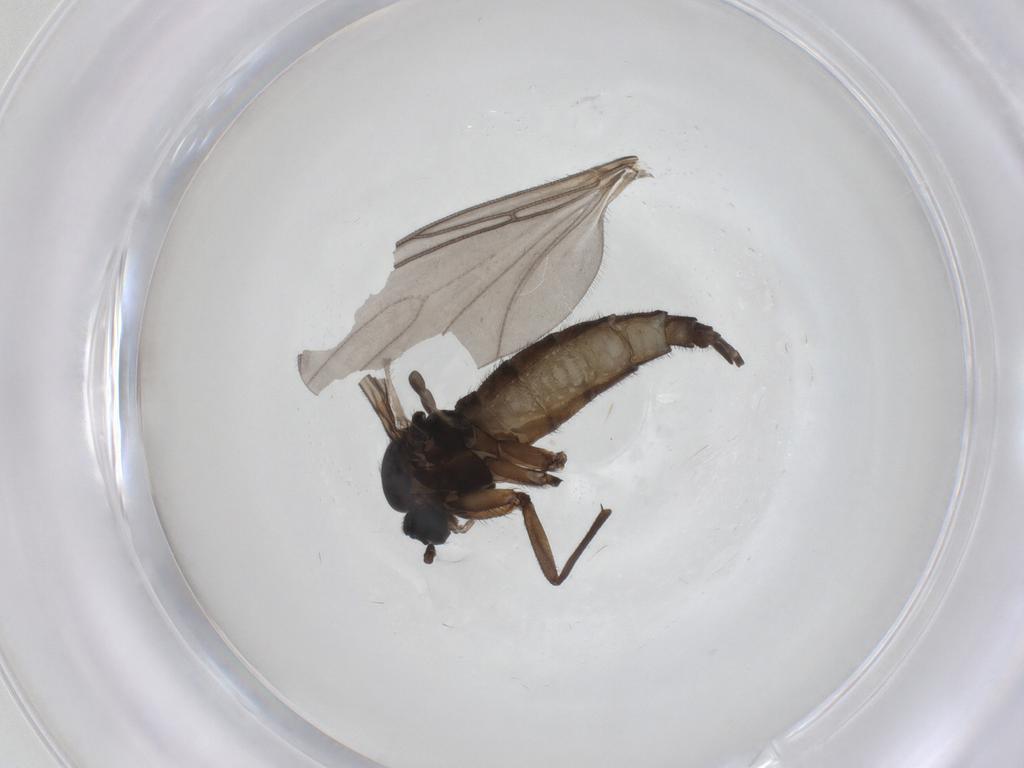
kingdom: Animalia
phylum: Arthropoda
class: Insecta
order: Diptera
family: Sciaridae
